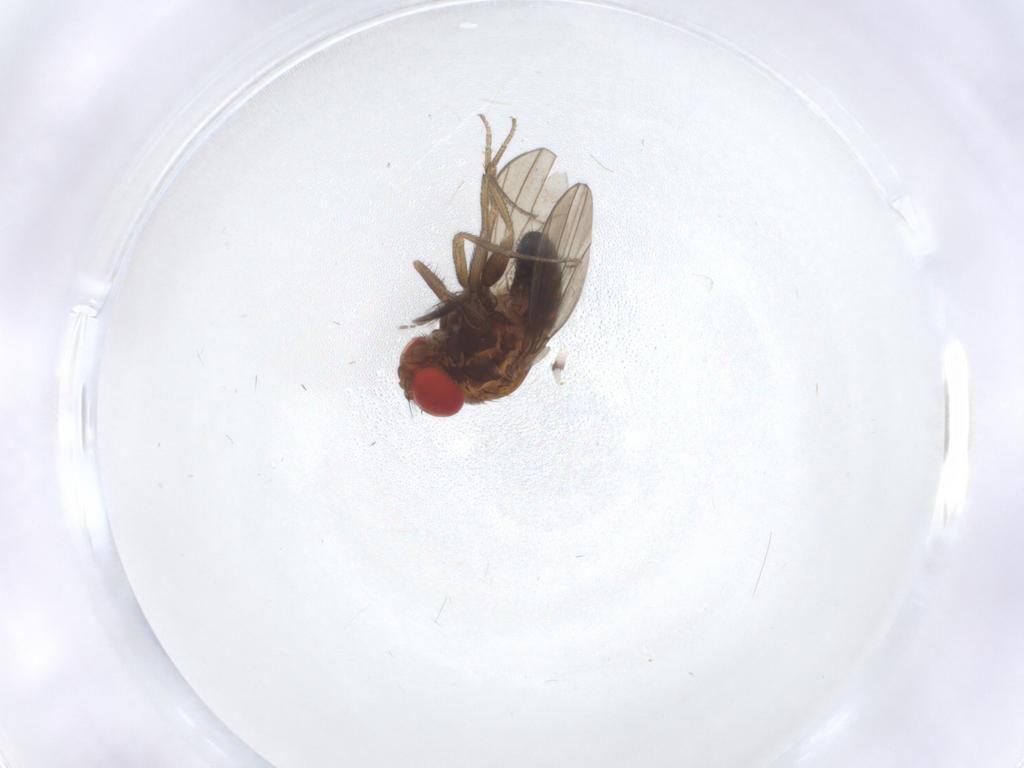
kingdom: Animalia
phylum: Arthropoda
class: Insecta
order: Diptera
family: Drosophilidae
